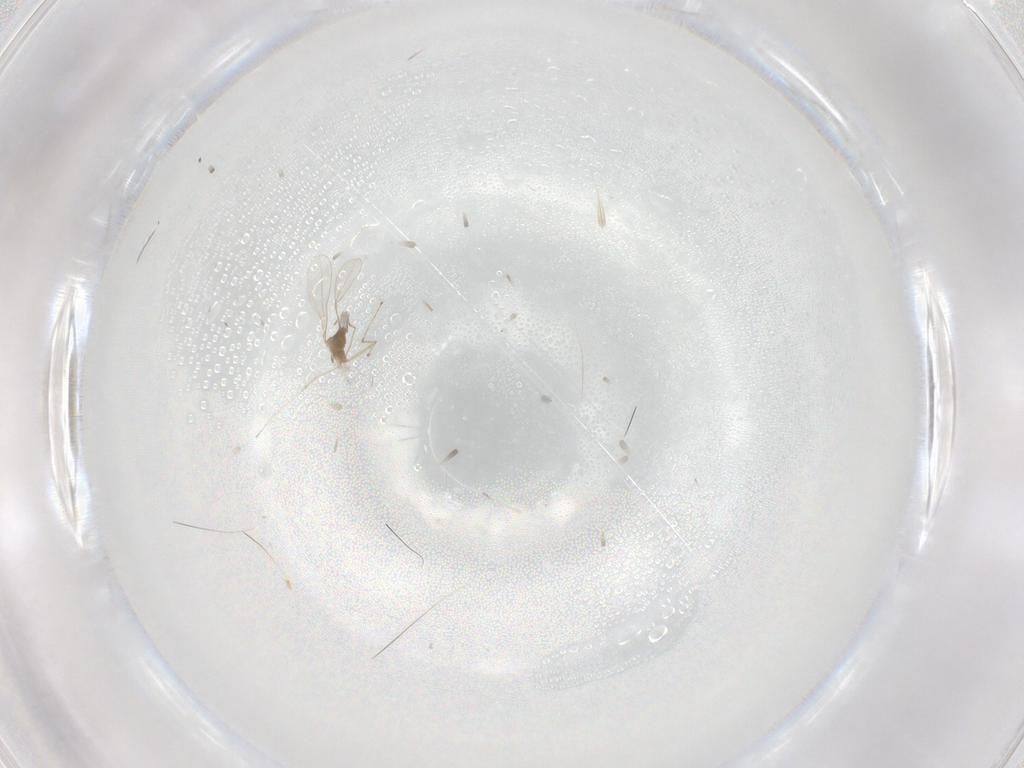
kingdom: Animalia
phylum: Arthropoda
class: Insecta
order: Diptera
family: Cecidomyiidae
